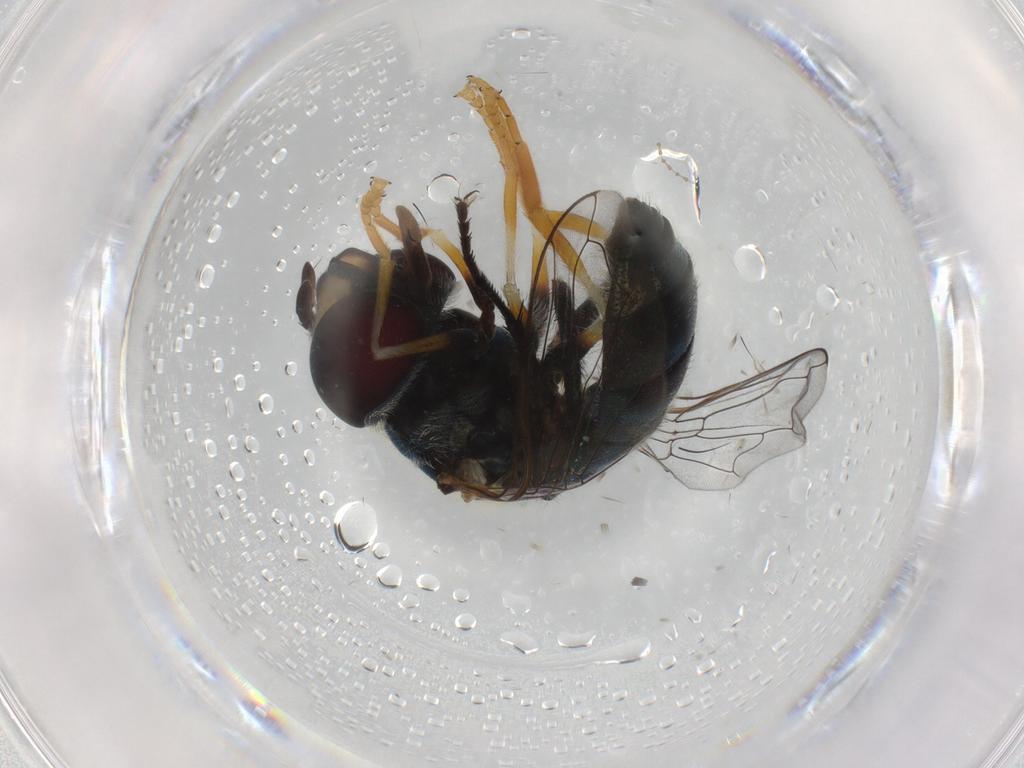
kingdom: Animalia
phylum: Arthropoda
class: Insecta
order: Diptera
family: Syrphidae
